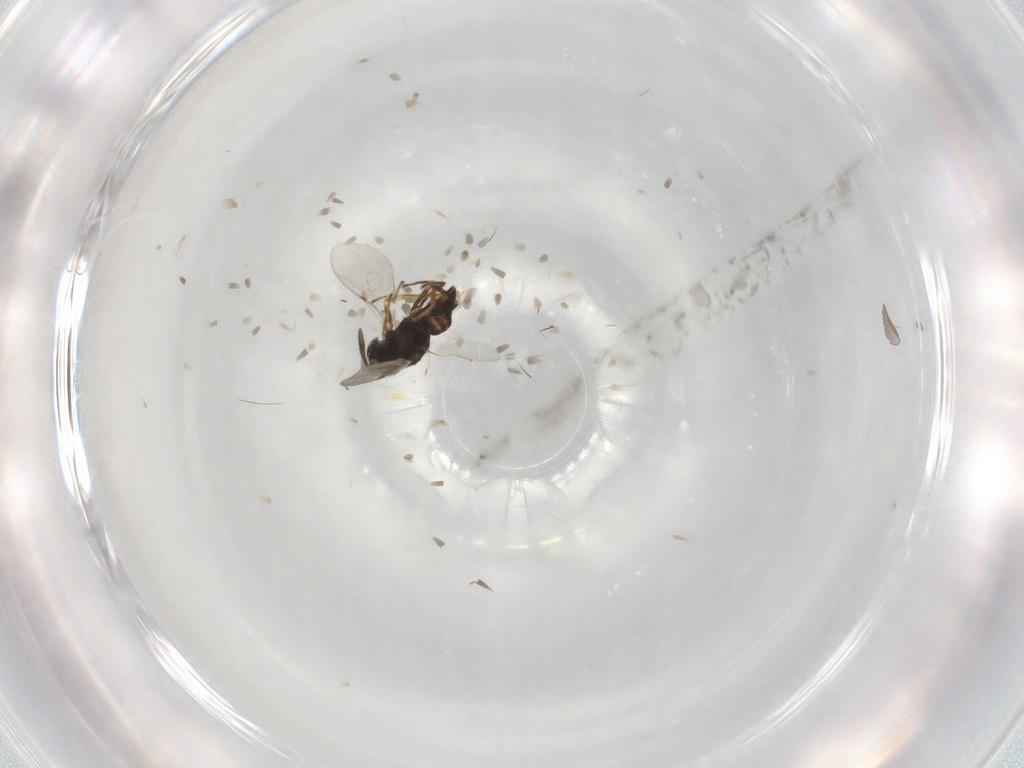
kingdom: Animalia
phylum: Arthropoda
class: Insecta
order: Hymenoptera
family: Encyrtidae
